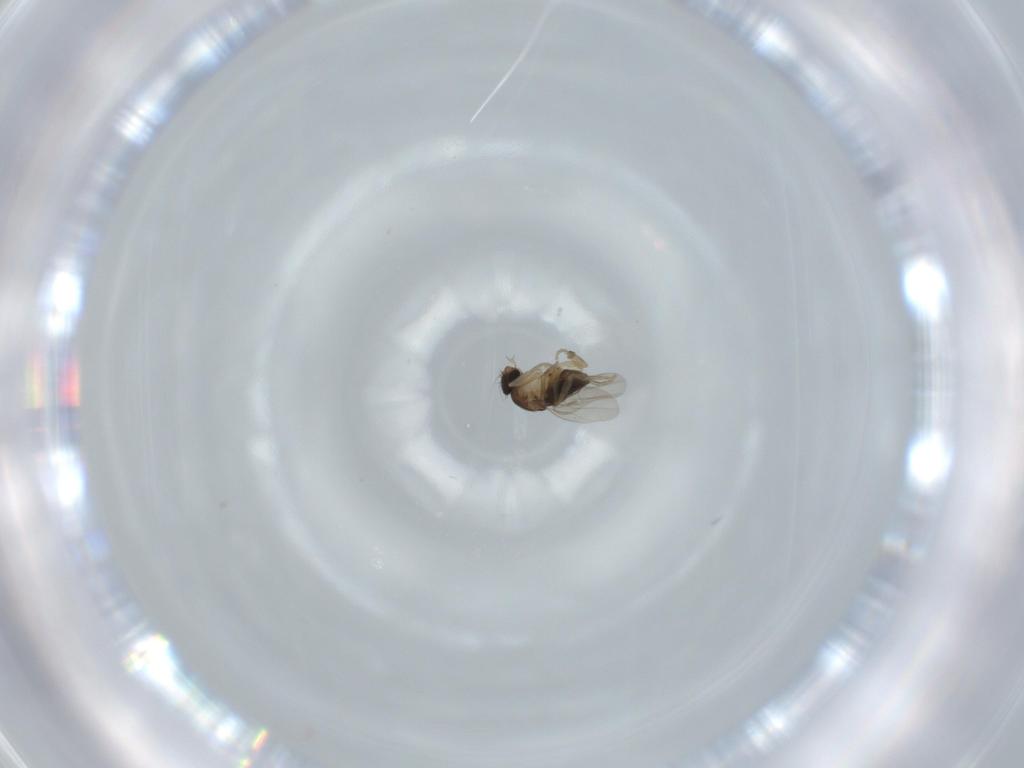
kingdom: Animalia
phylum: Arthropoda
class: Insecta
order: Diptera
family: Phoridae
